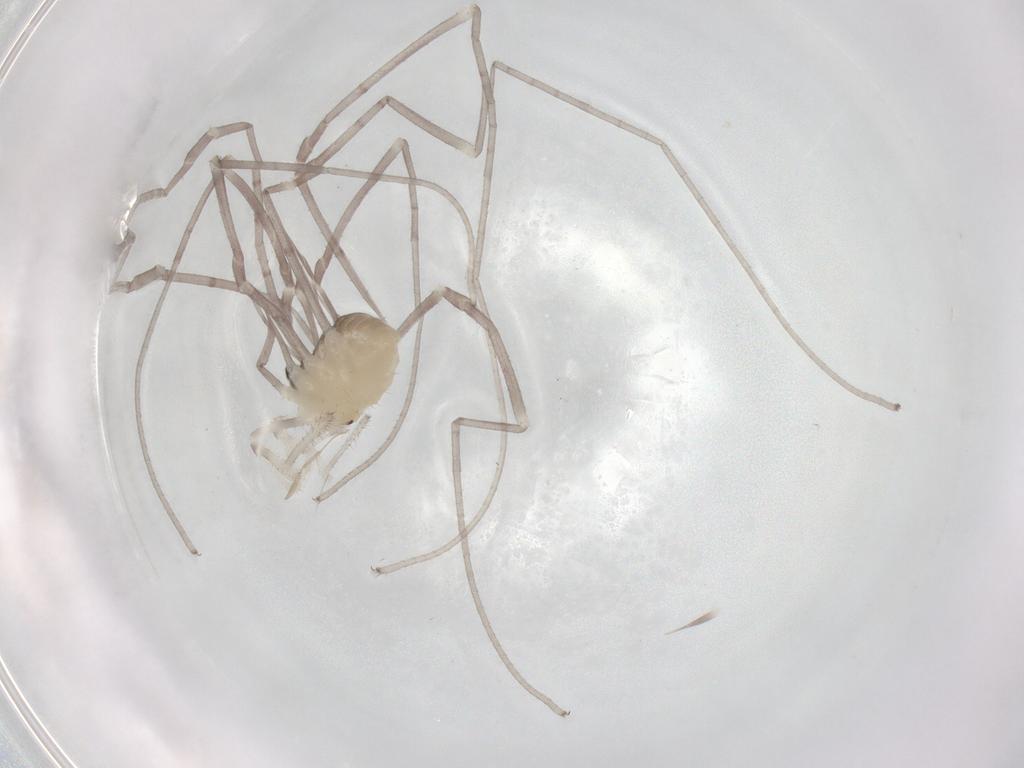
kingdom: Animalia
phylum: Arthropoda
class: Arachnida
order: Opiliones
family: Sclerosomatidae
